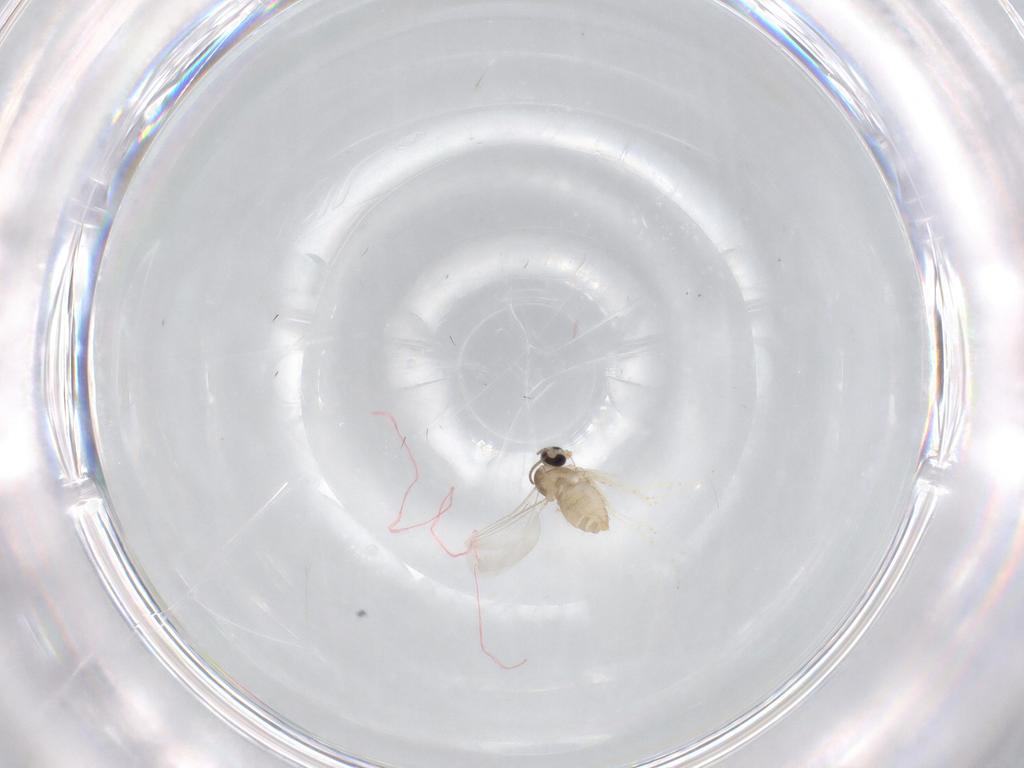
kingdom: Animalia
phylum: Arthropoda
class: Insecta
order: Diptera
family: Cecidomyiidae
